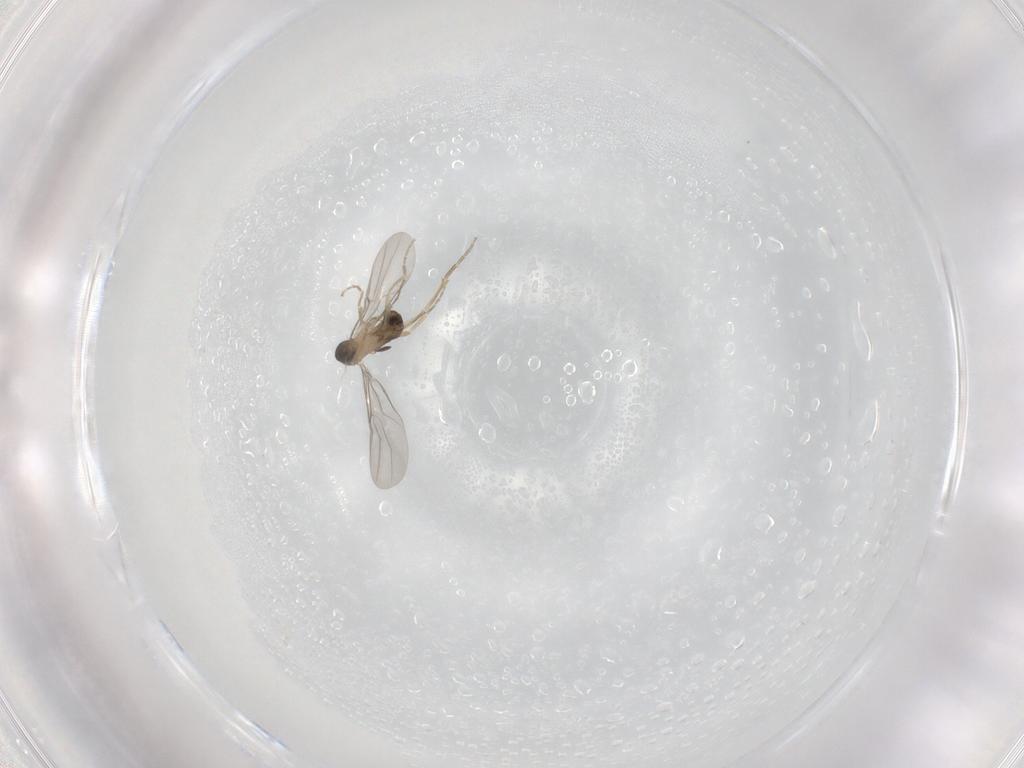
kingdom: Animalia
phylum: Arthropoda
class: Insecta
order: Diptera
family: Phoridae
